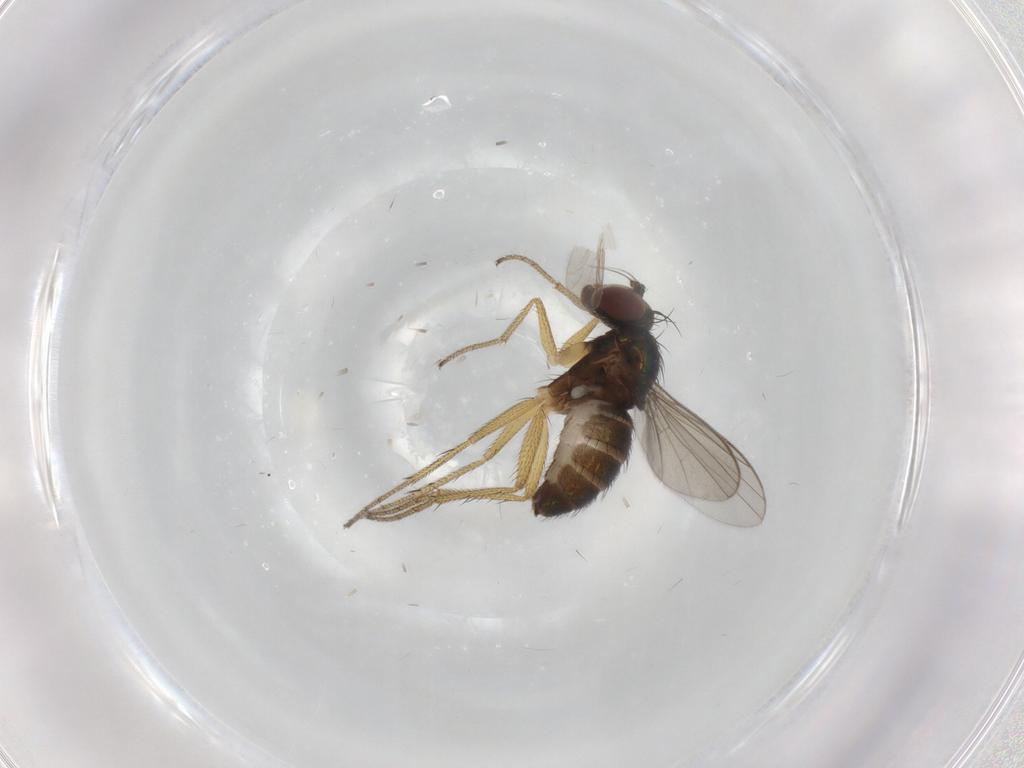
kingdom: Animalia
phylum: Arthropoda
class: Insecta
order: Diptera
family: Dolichopodidae
